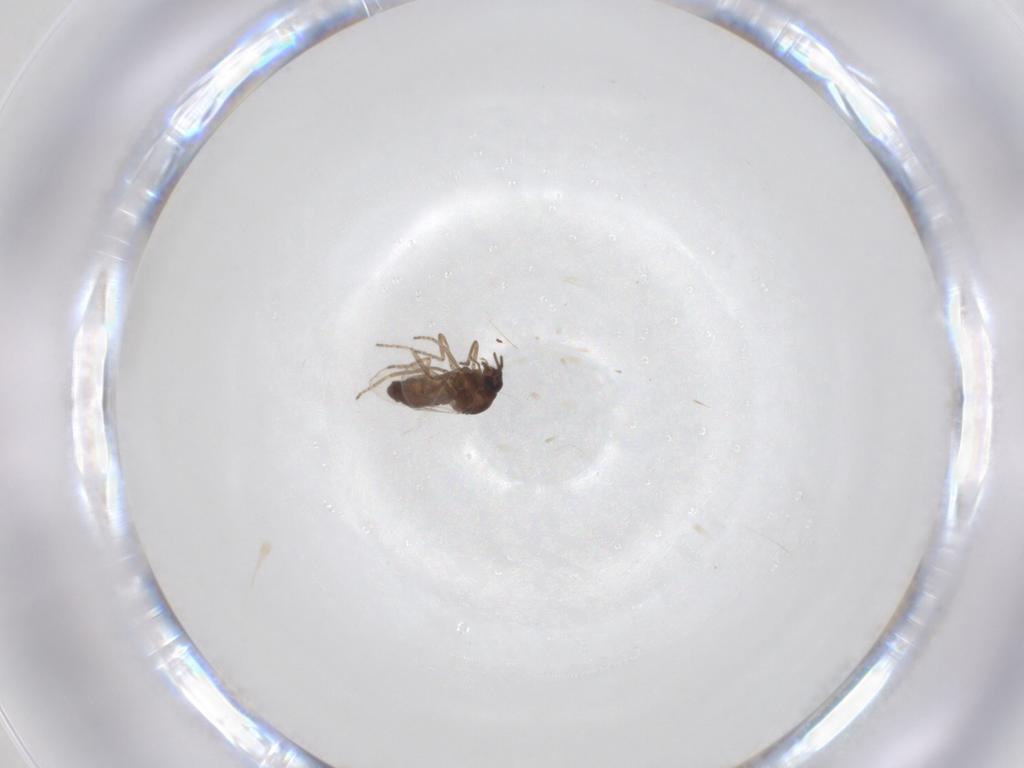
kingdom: Animalia
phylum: Arthropoda
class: Insecta
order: Diptera
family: Ceratopogonidae
